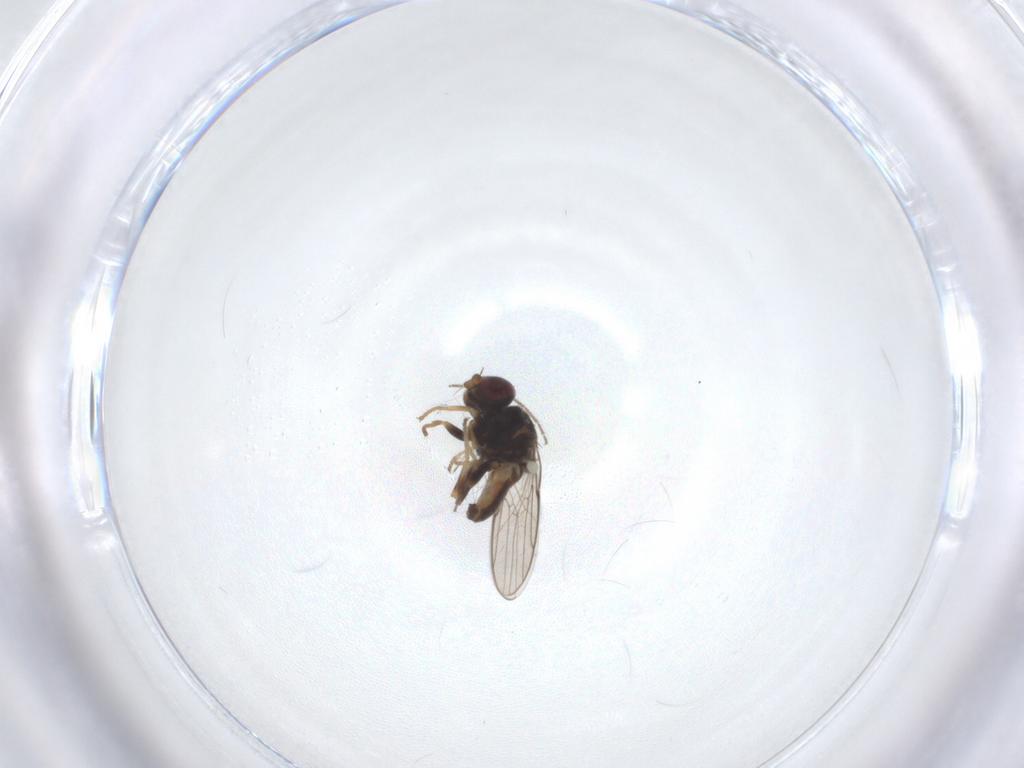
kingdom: Animalia
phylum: Arthropoda
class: Insecta
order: Diptera
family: Chloropidae
